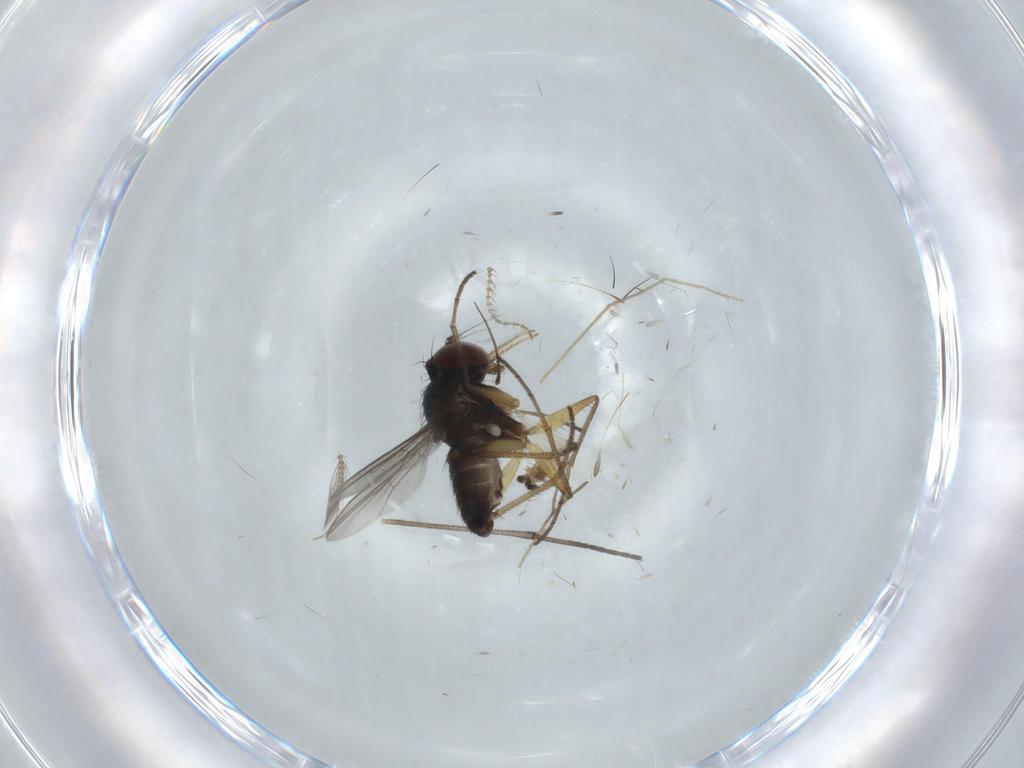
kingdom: Animalia
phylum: Arthropoda
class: Insecta
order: Diptera
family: Dolichopodidae
